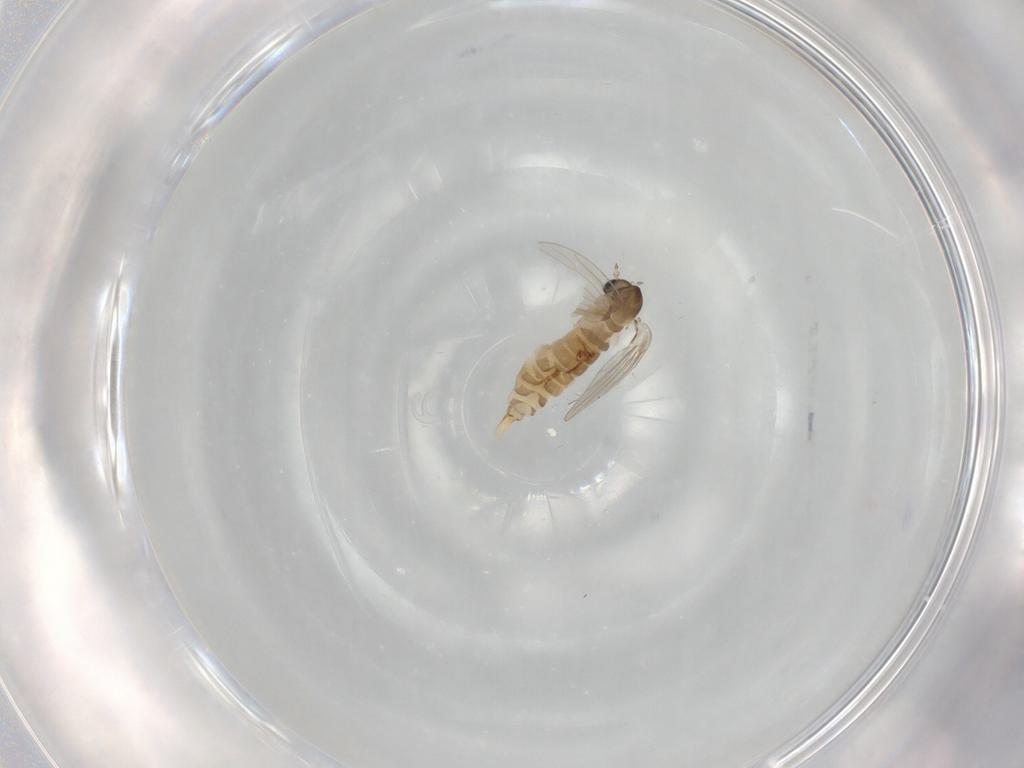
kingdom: Animalia
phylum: Arthropoda
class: Insecta
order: Diptera
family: Psychodidae
